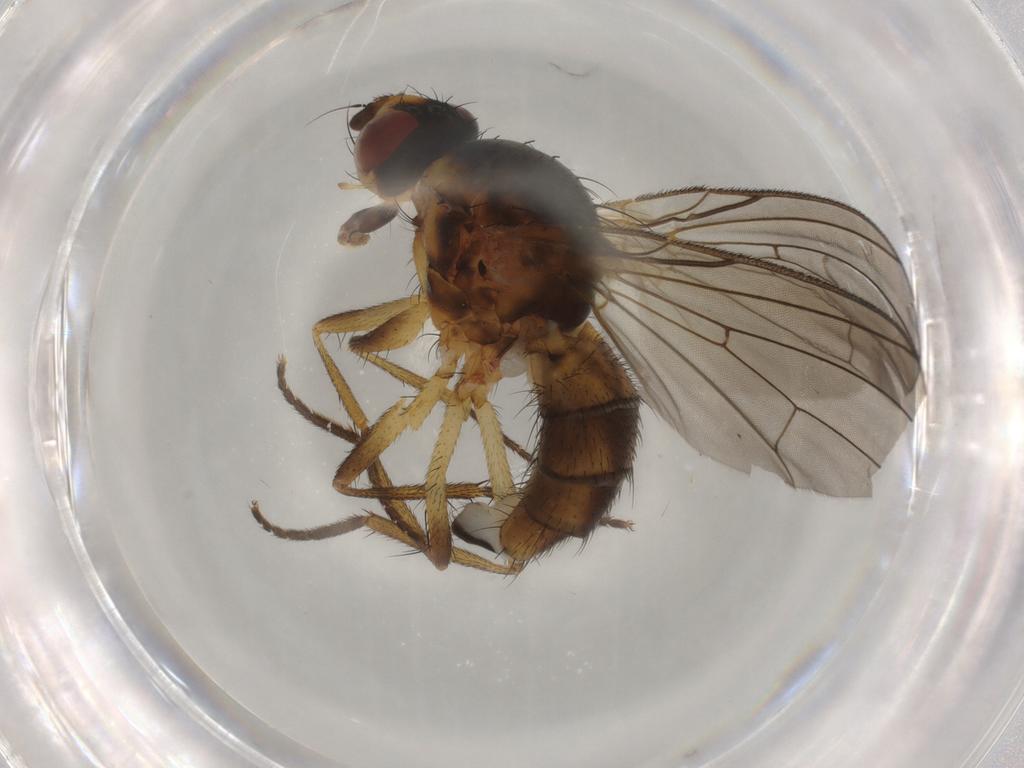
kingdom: Animalia
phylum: Arthropoda
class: Insecta
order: Diptera
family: Anthomyiidae
